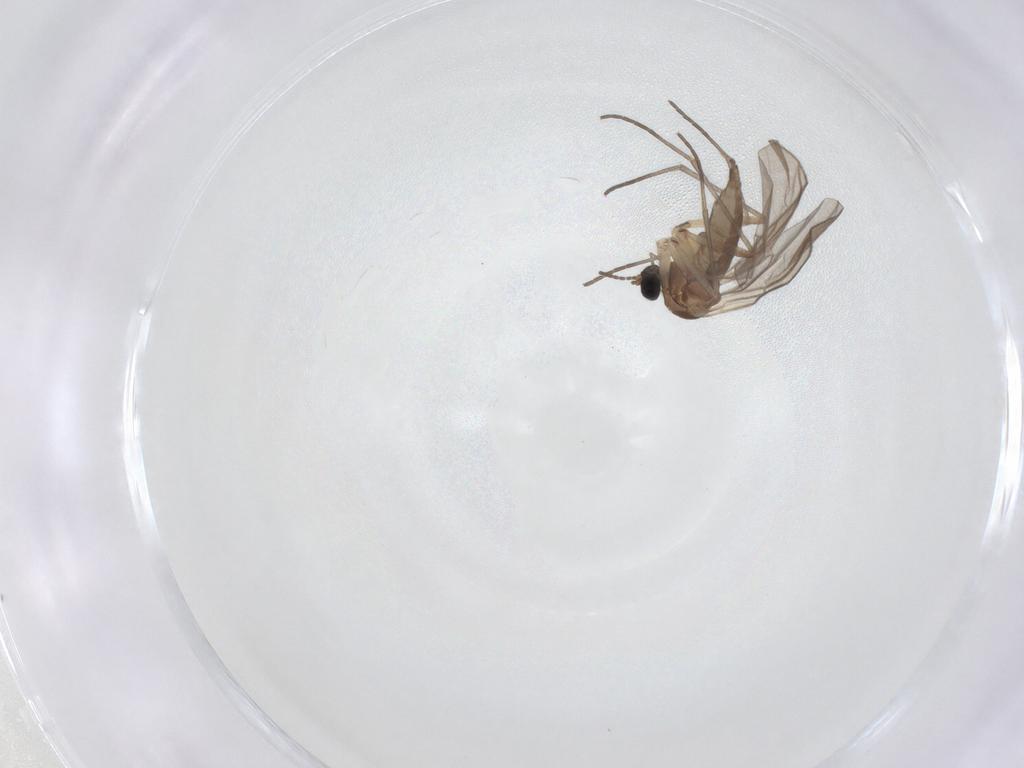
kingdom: Animalia
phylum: Arthropoda
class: Insecta
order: Diptera
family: Sciaridae
